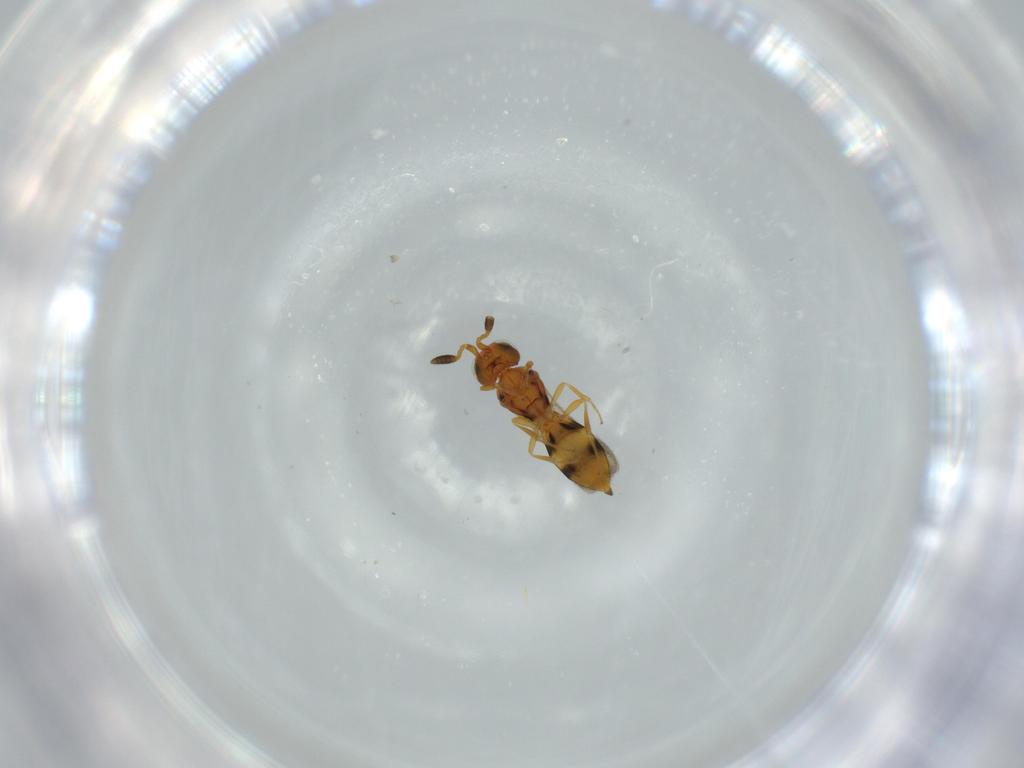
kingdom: Animalia
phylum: Arthropoda
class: Insecta
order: Hymenoptera
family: Scelionidae
